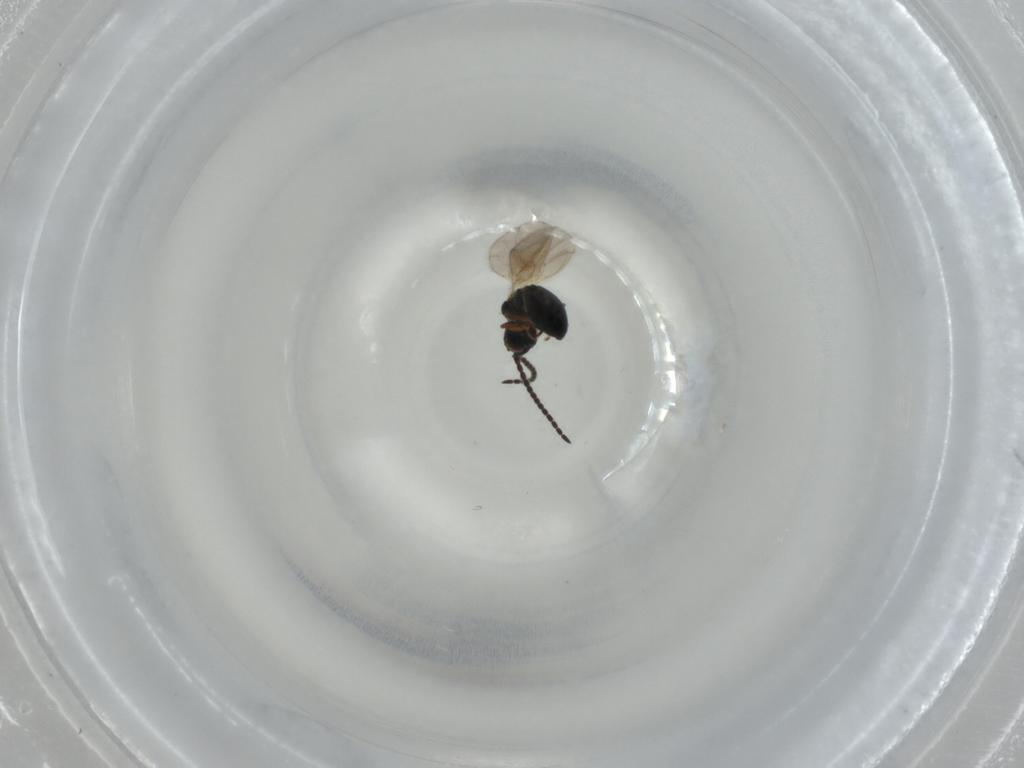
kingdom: Animalia
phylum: Arthropoda
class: Insecta
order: Hymenoptera
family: Diapriidae
